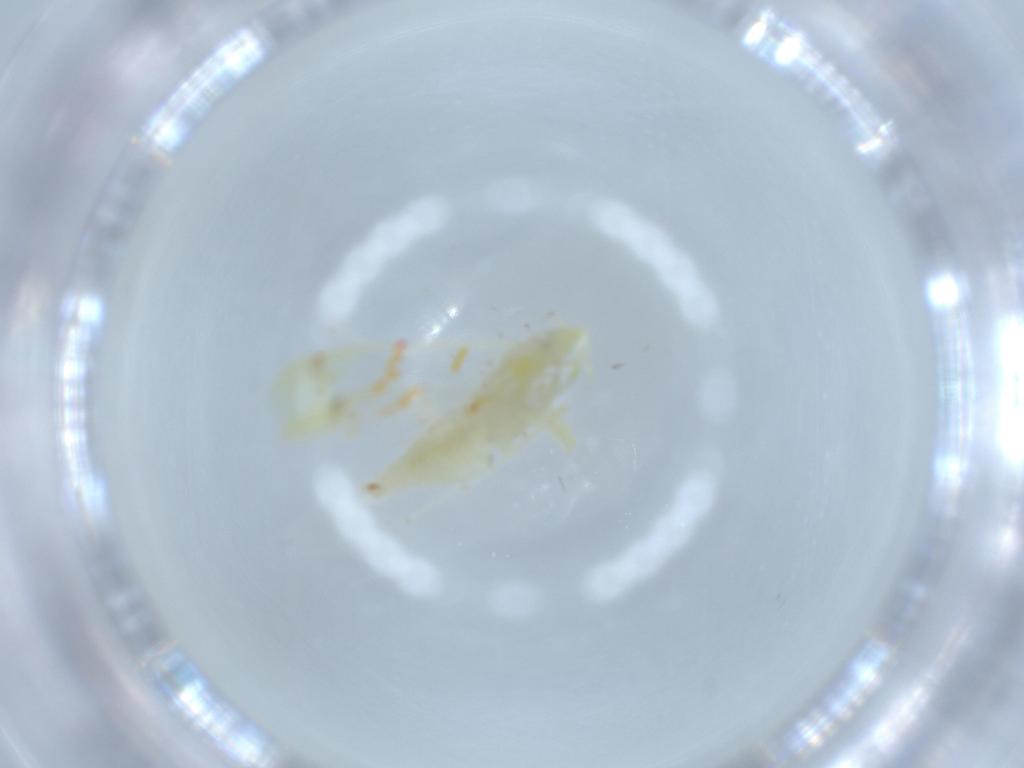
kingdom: Animalia
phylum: Arthropoda
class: Insecta
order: Hemiptera
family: Cicadellidae
